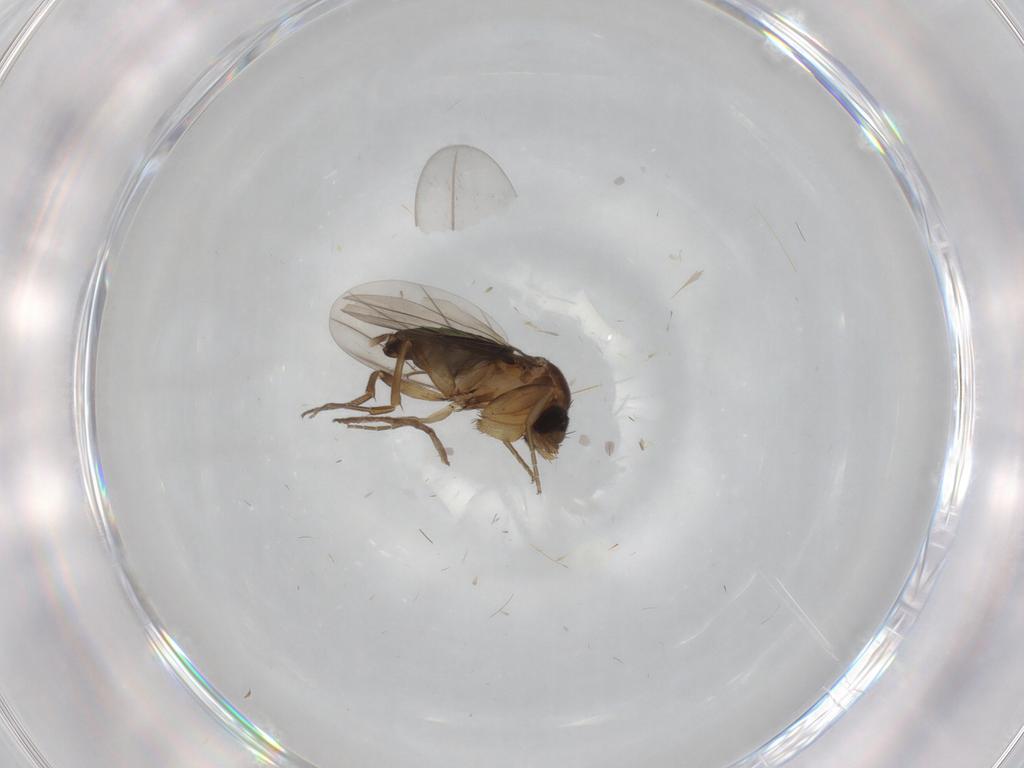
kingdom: Animalia
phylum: Arthropoda
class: Insecta
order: Diptera
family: Phoridae
